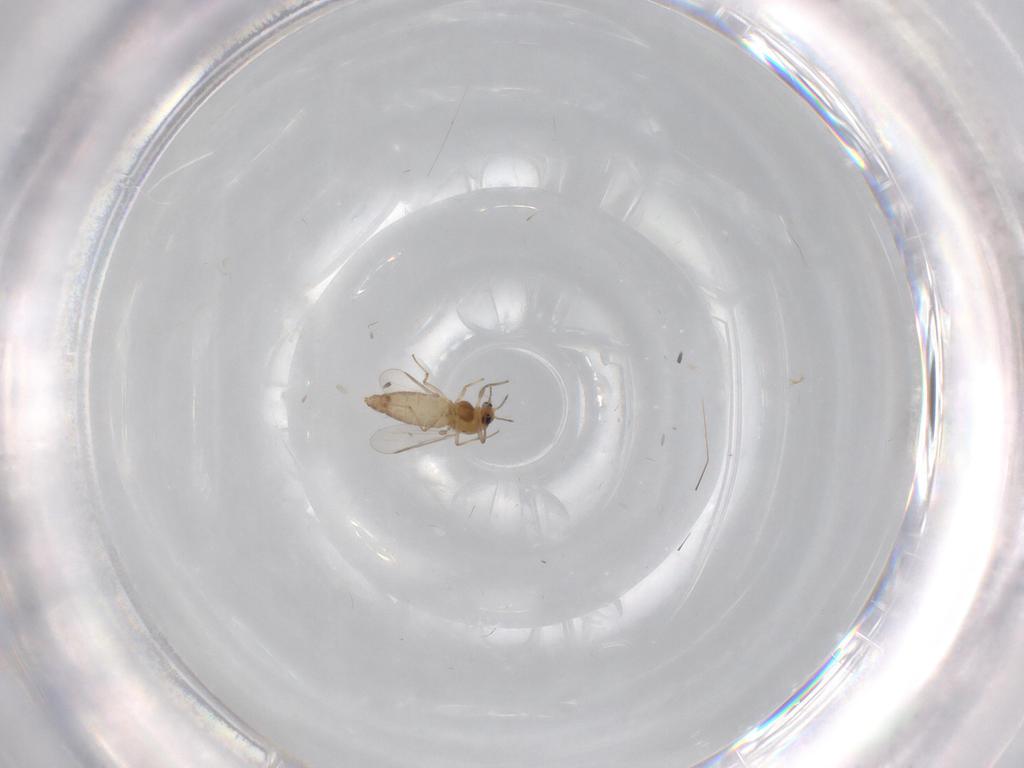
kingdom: Animalia
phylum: Arthropoda
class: Insecta
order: Diptera
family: Chironomidae
